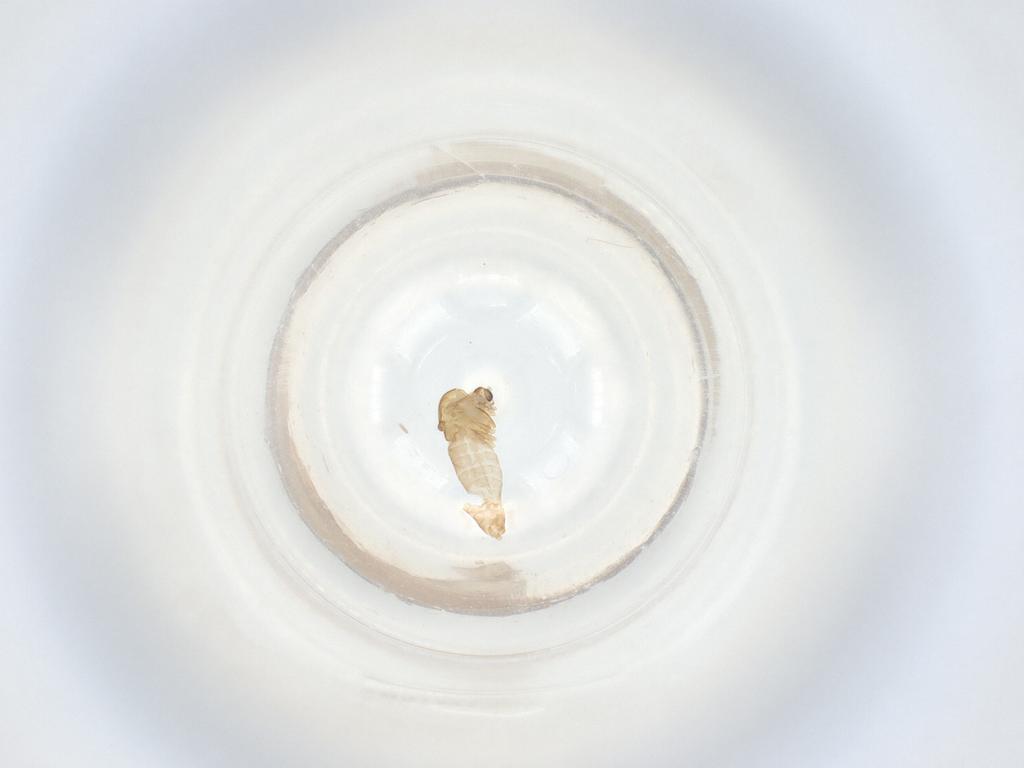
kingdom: Animalia
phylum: Arthropoda
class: Insecta
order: Diptera
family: Chironomidae
